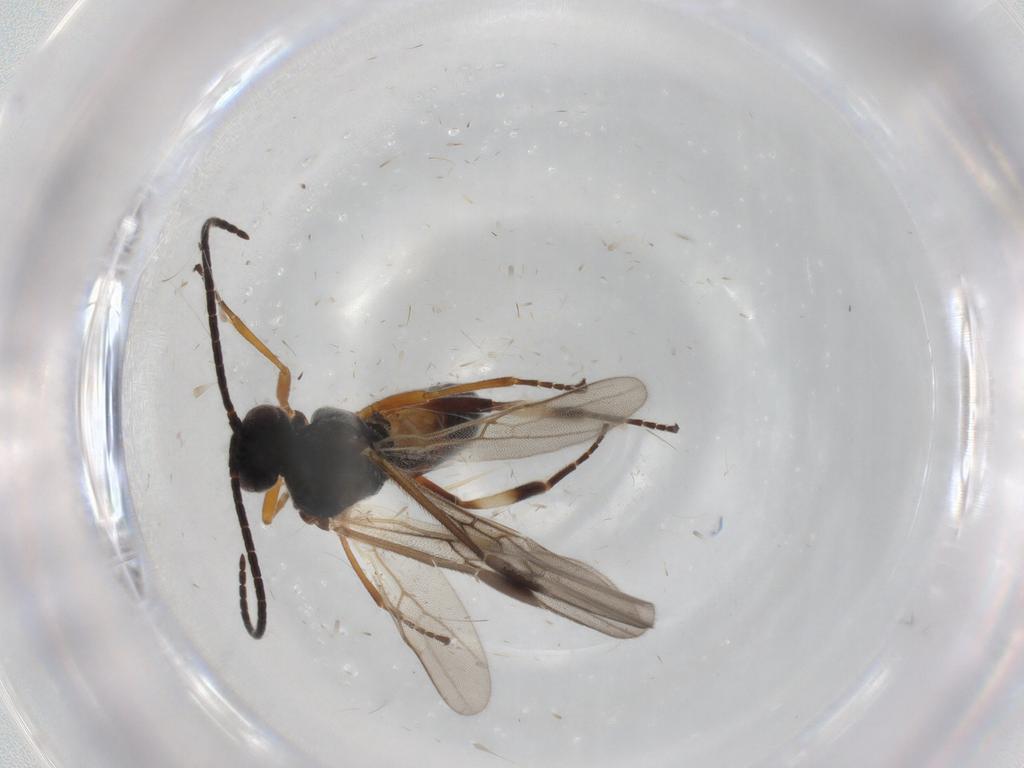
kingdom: Animalia
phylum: Arthropoda
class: Insecta
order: Hymenoptera
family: Braconidae
